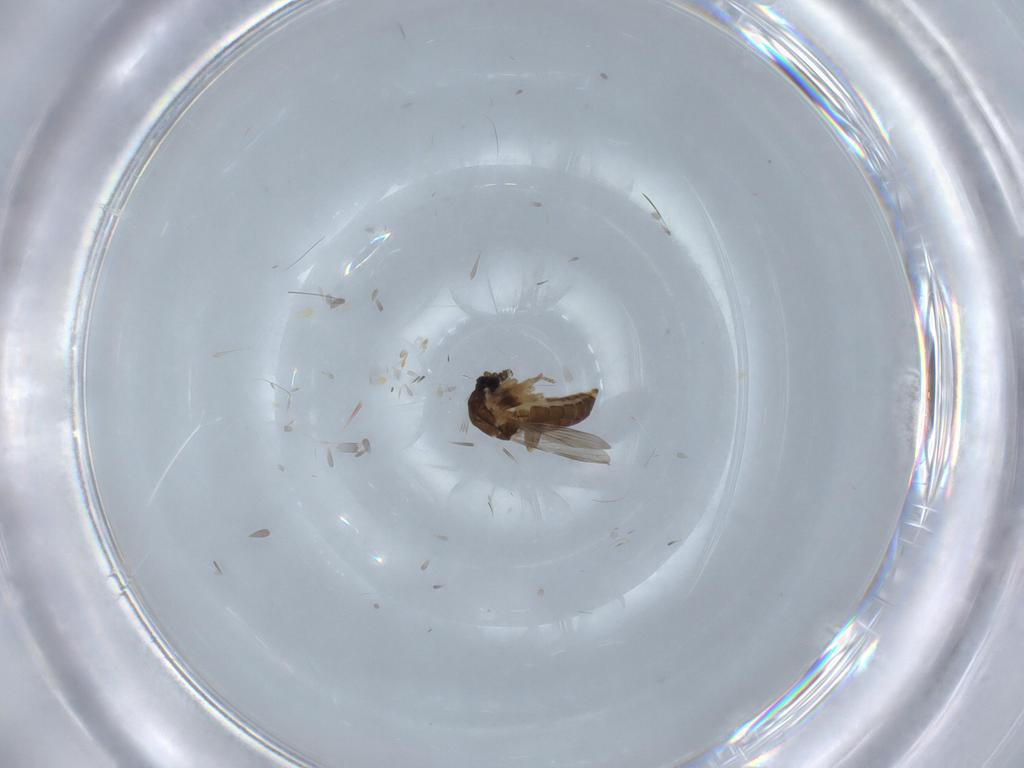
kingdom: Animalia
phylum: Arthropoda
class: Insecta
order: Diptera
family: Ceratopogonidae
